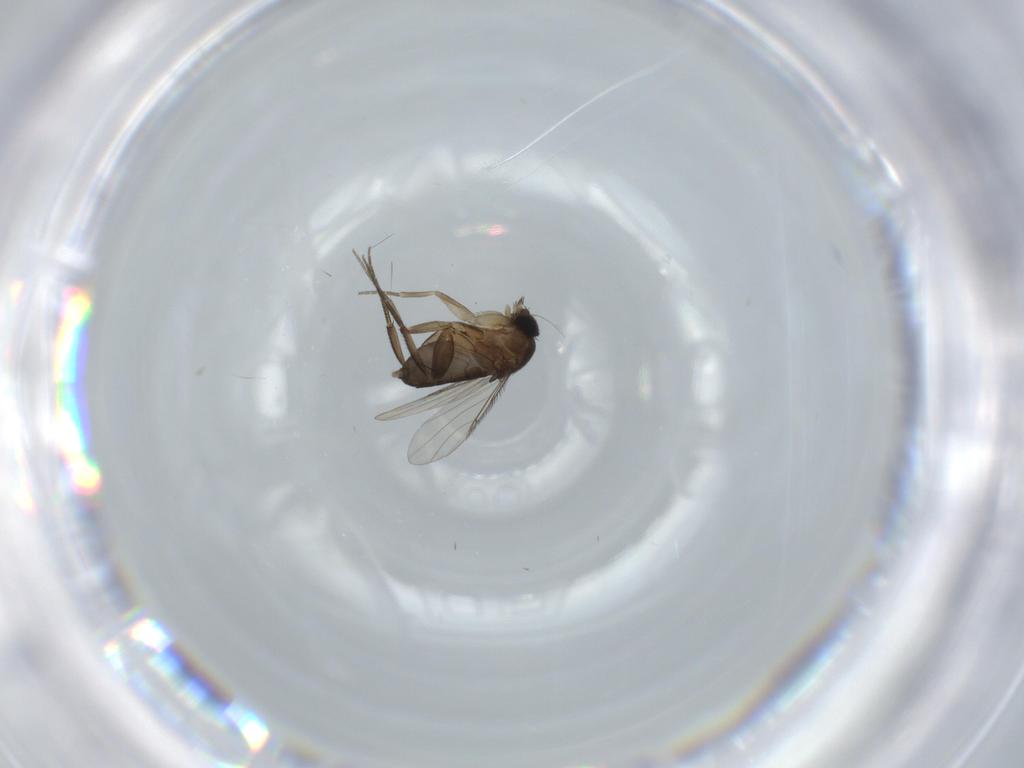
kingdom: Animalia
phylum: Arthropoda
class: Insecta
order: Diptera
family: Phoridae
